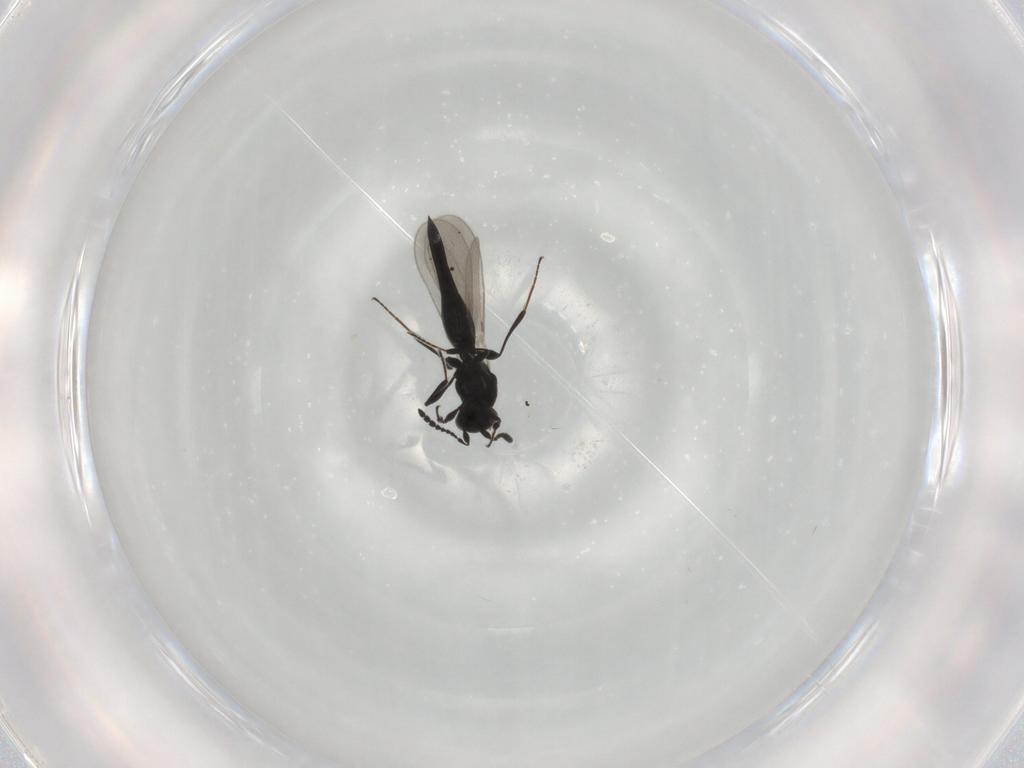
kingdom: Animalia
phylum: Arthropoda
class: Insecta
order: Hymenoptera
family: Platygastridae
